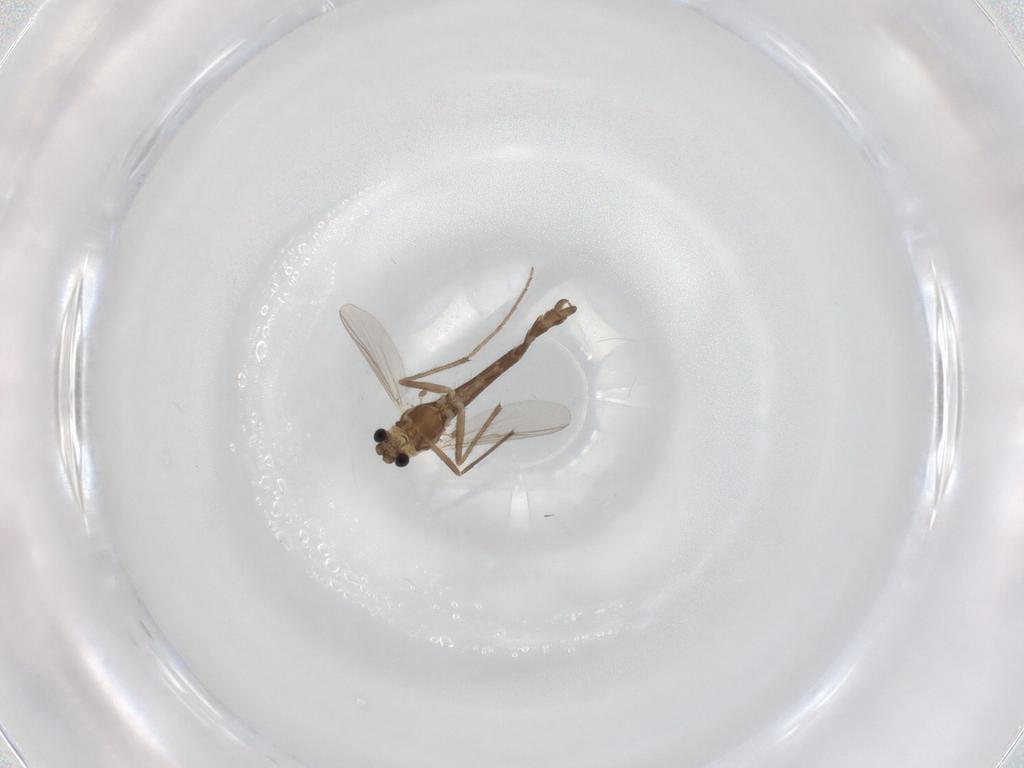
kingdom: Animalia
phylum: Arthropoda
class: Insecta
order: Diptera
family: Chironomidae
